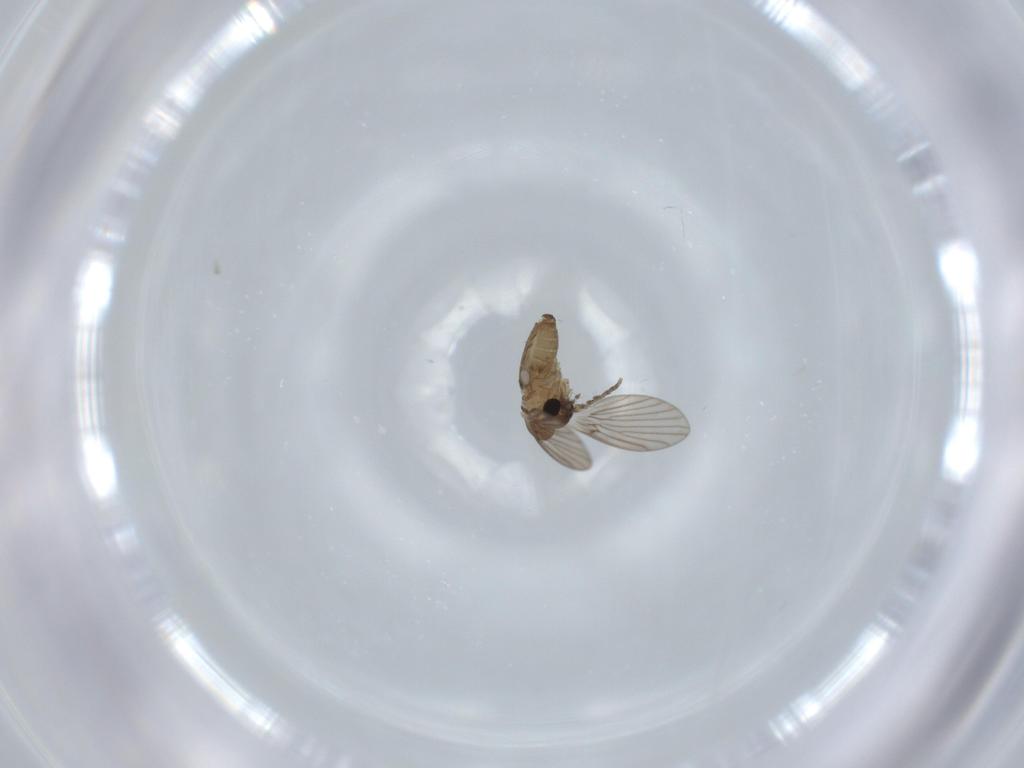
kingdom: Animalia
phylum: Arthropoda
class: Insecta
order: Diptera
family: Psychodidae
